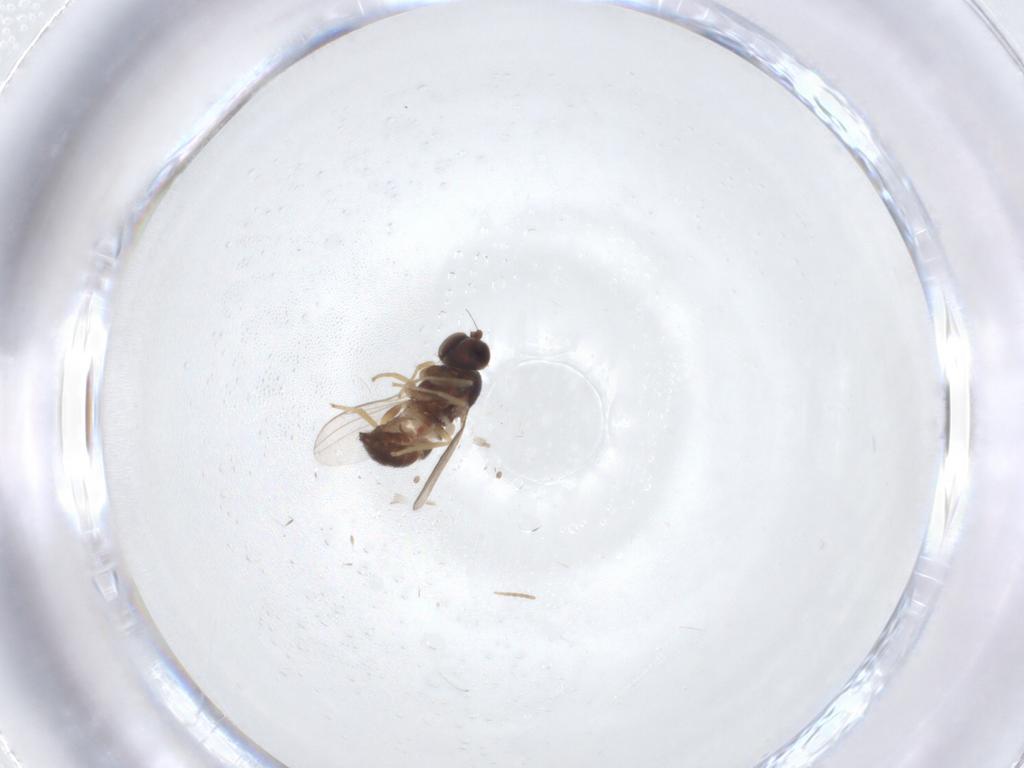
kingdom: Animalia
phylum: Arthropoda
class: Insecta
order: Diptera
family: Dolichopodidae
